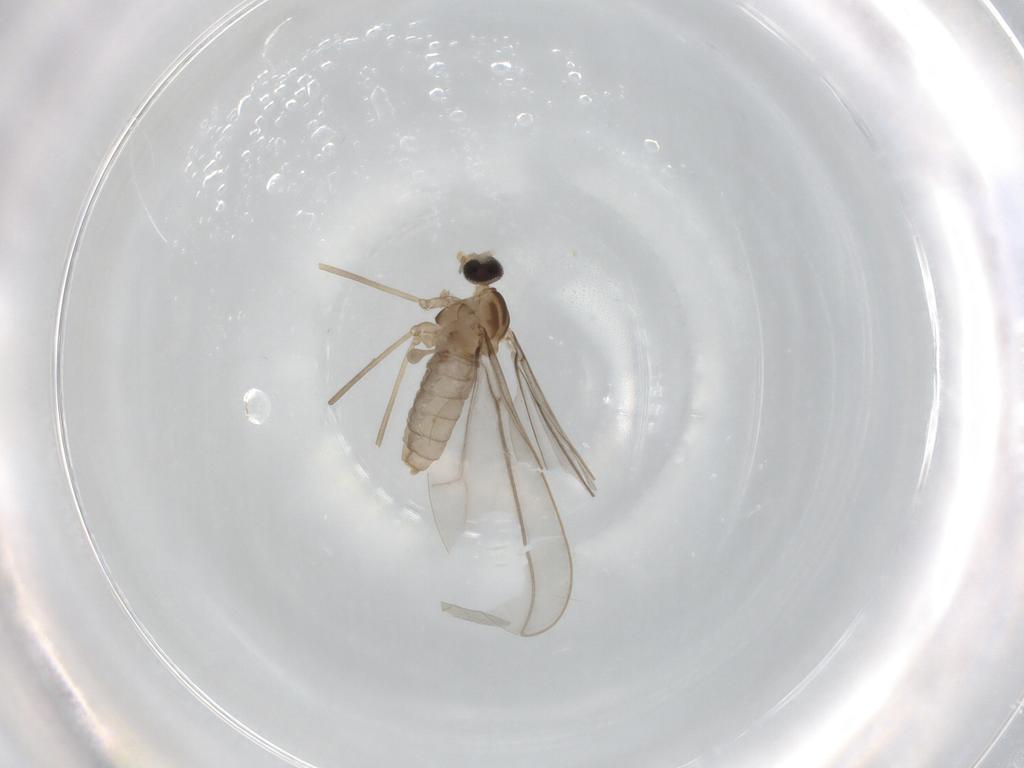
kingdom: Animalia
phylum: Arthropoda
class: Insecta
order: Diptera
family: Cecidomyiidae
